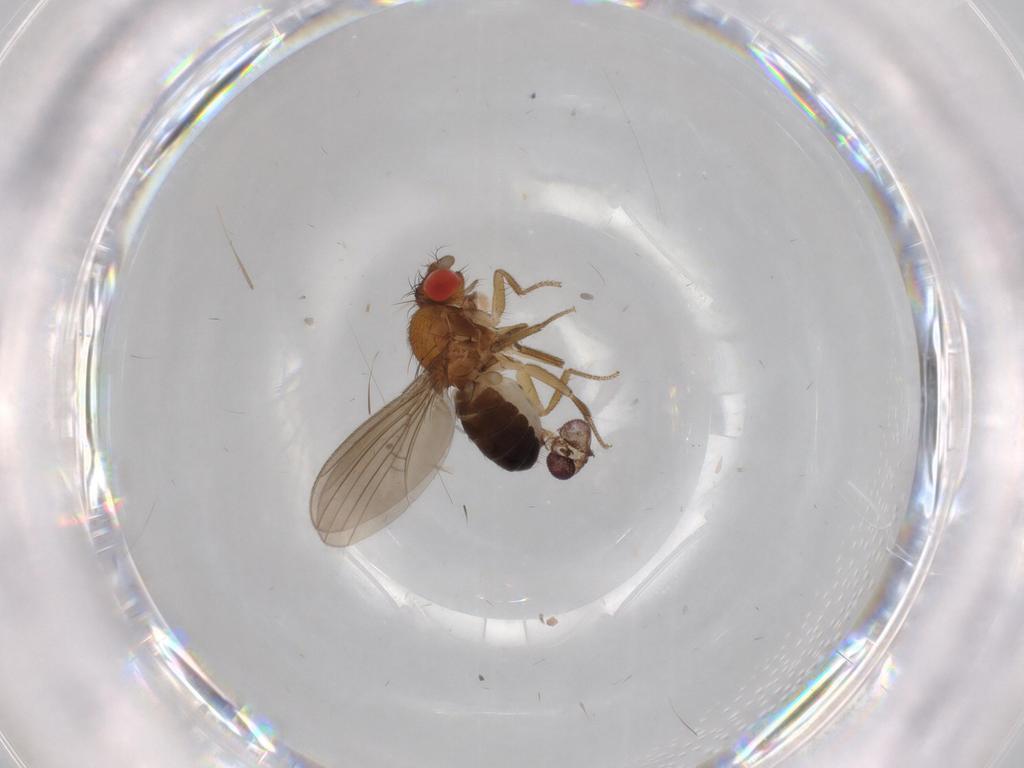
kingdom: Animalia
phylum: Arthropoda
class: Insecta
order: Diptera
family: Drosophilidae
